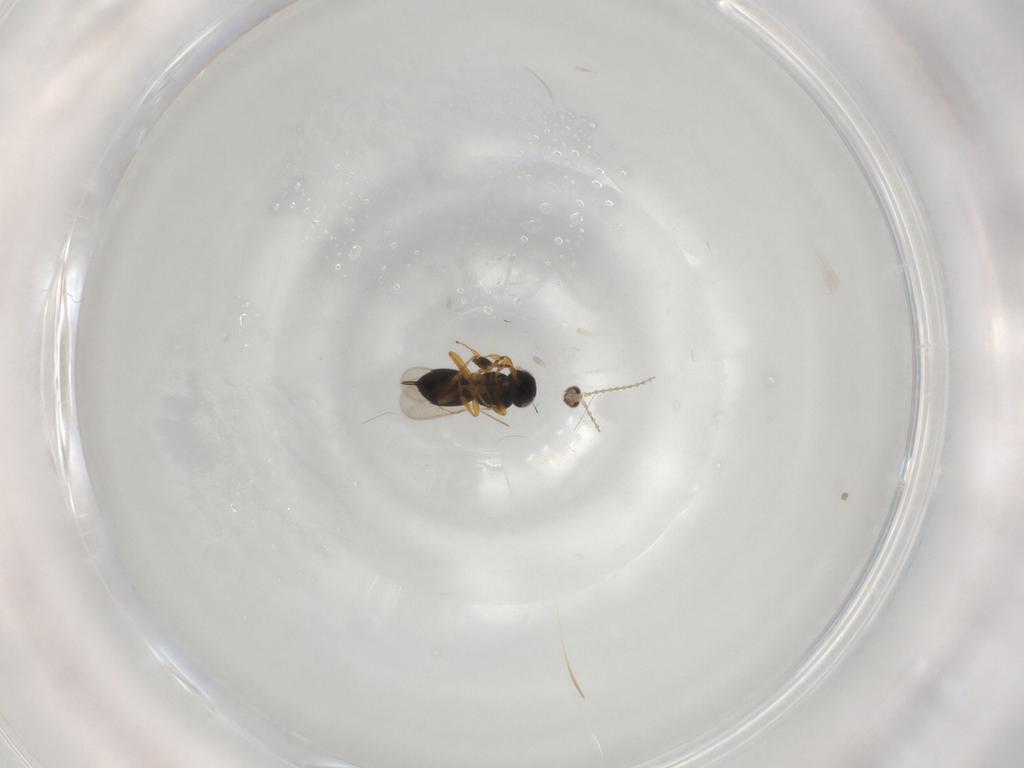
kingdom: Animalia
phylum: Arthropoda
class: Insecta
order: Hymenoptera
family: Scelionidae
